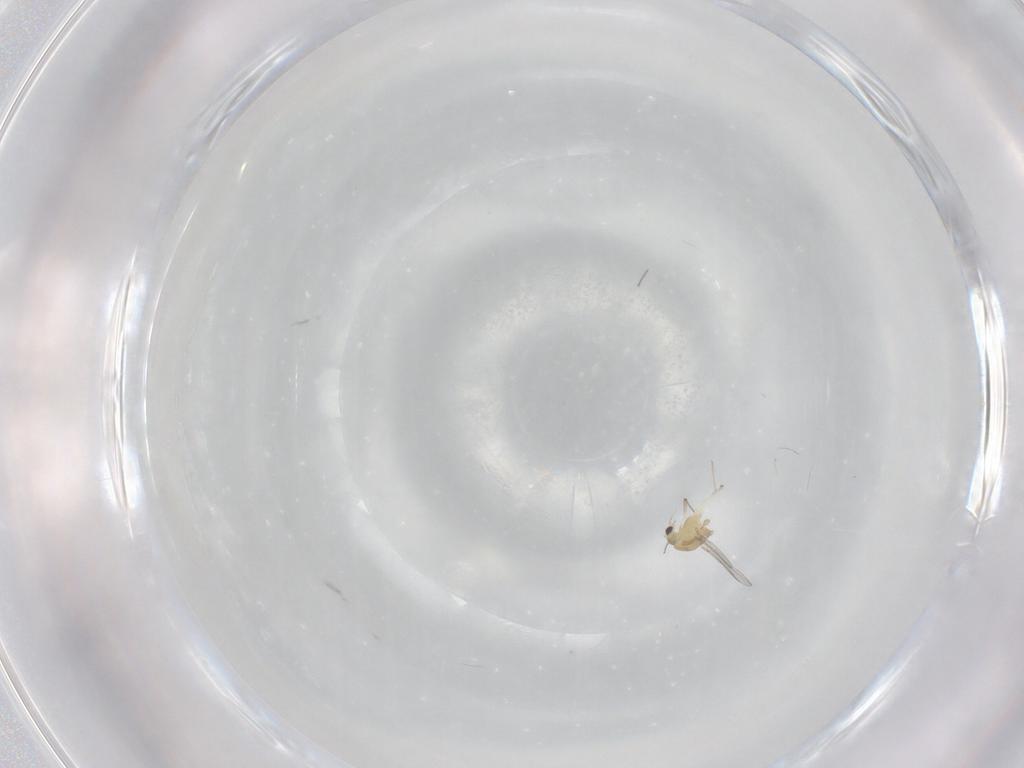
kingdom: Animalia
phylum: Arthropoda
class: Insecta
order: Diptera
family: Chironomidae
